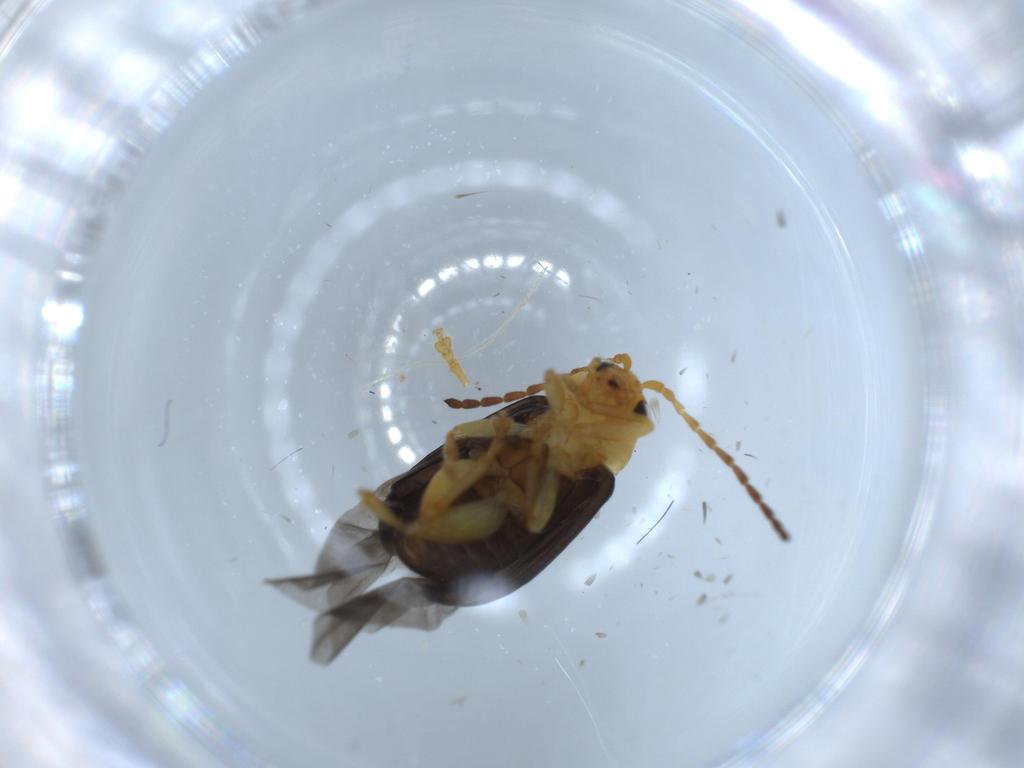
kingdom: Animalia
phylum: Arthropoda
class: Insecta
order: Coleoptera
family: Chrysomelidae
